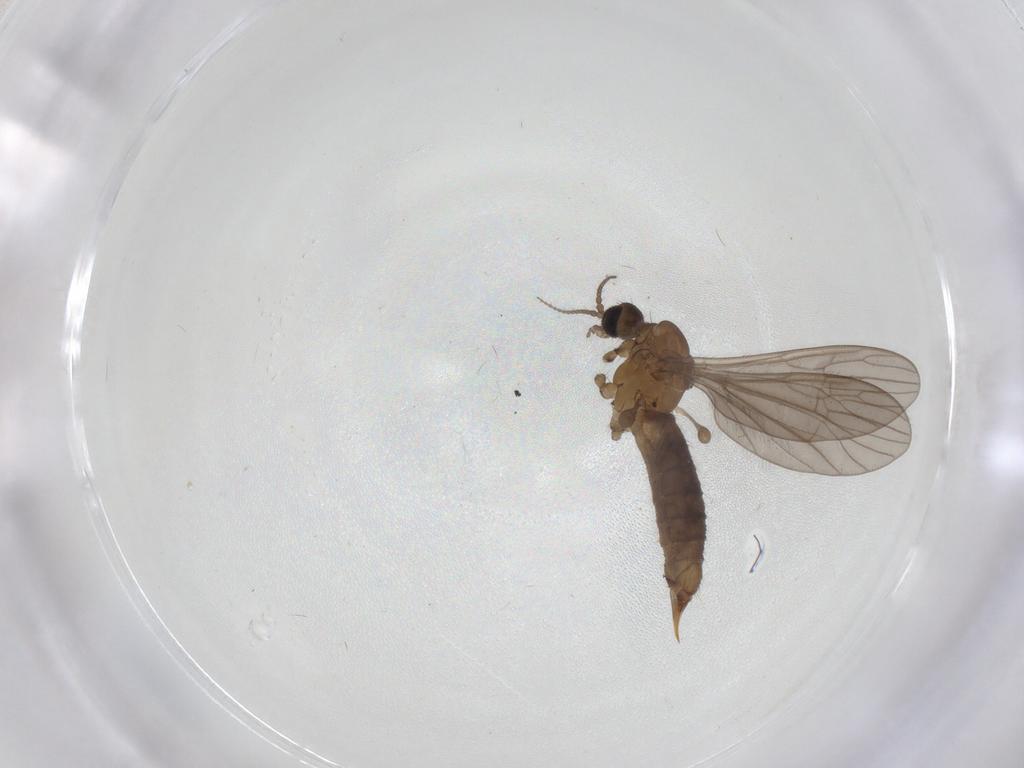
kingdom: Animalia
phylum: Arthropoda
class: Insecta
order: Diptera
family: Limoniidae
